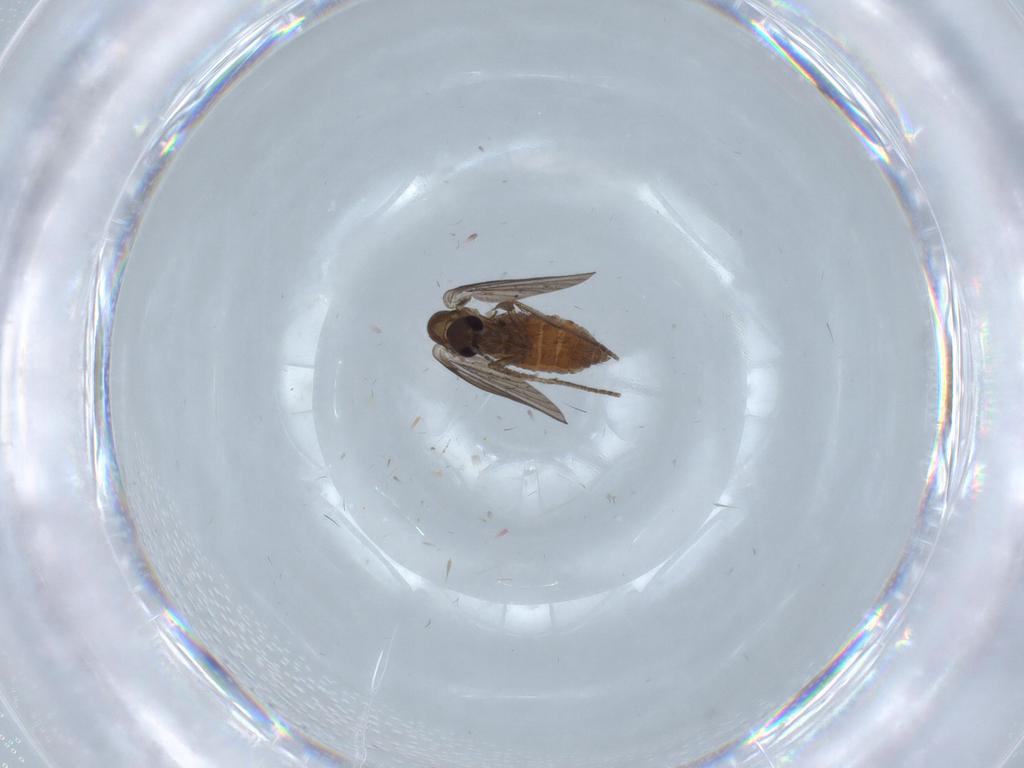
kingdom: Animalia
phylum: Arthropoda
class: Insecta
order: Diptera
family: Psychodidae
